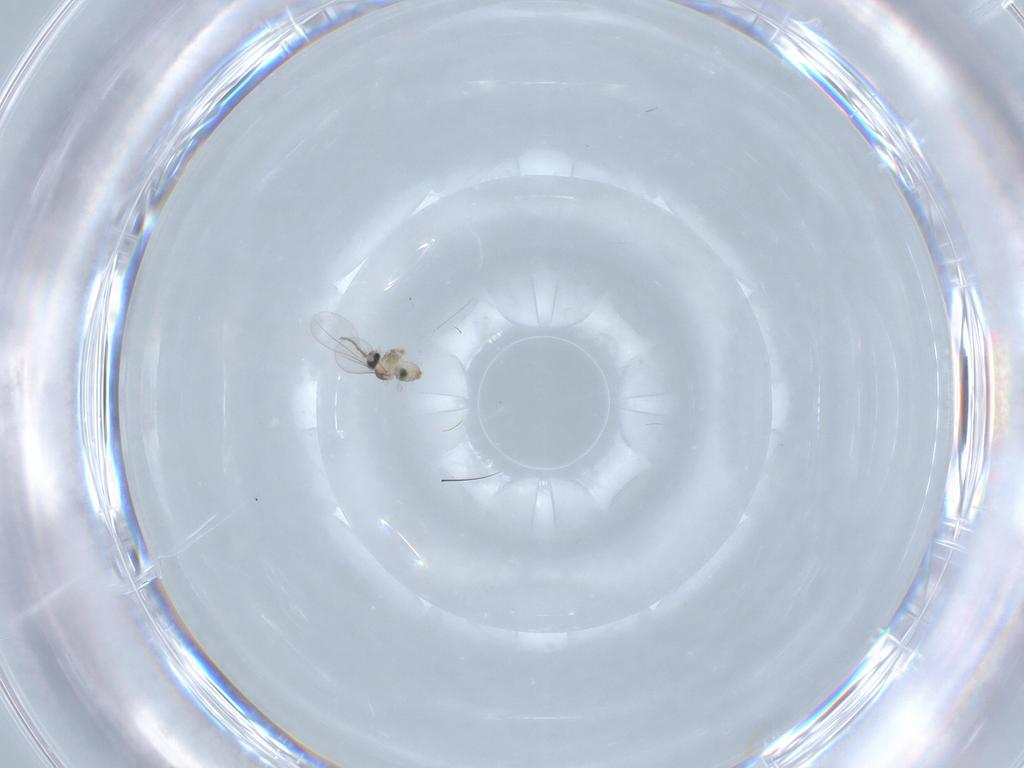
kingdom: Animalia
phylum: Arthropoda
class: Insecta
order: Diptera
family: Cecidomyiidae
